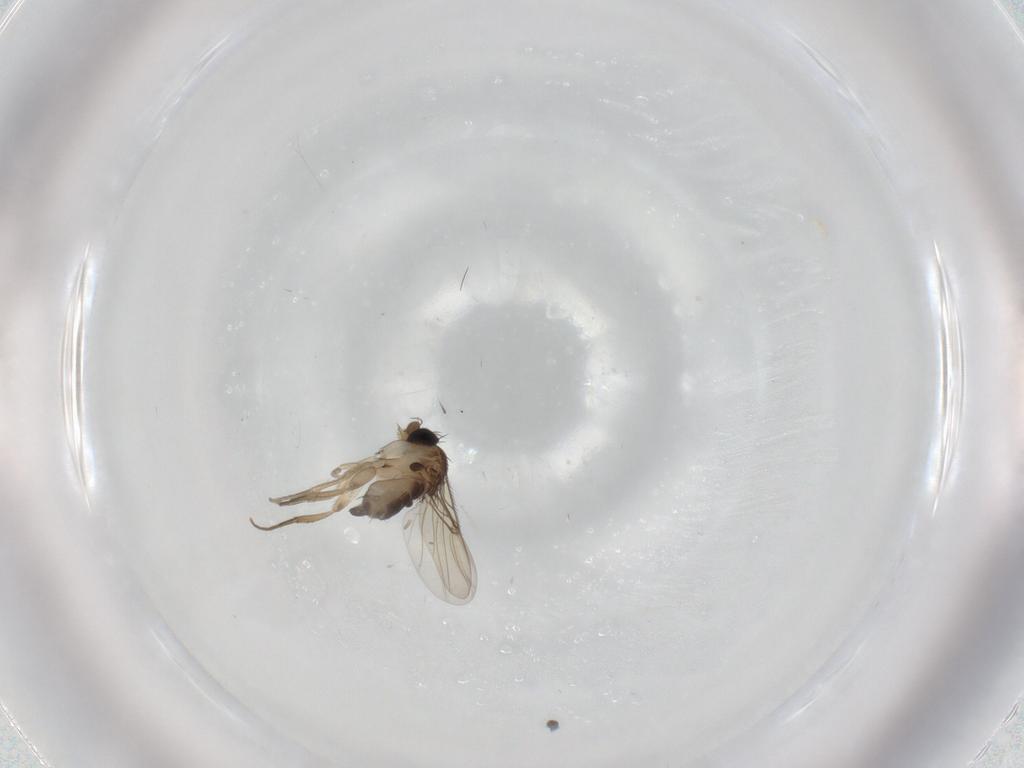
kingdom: Animalia
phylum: Arthropoda
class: Insecta
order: Diptera
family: Phoridae
